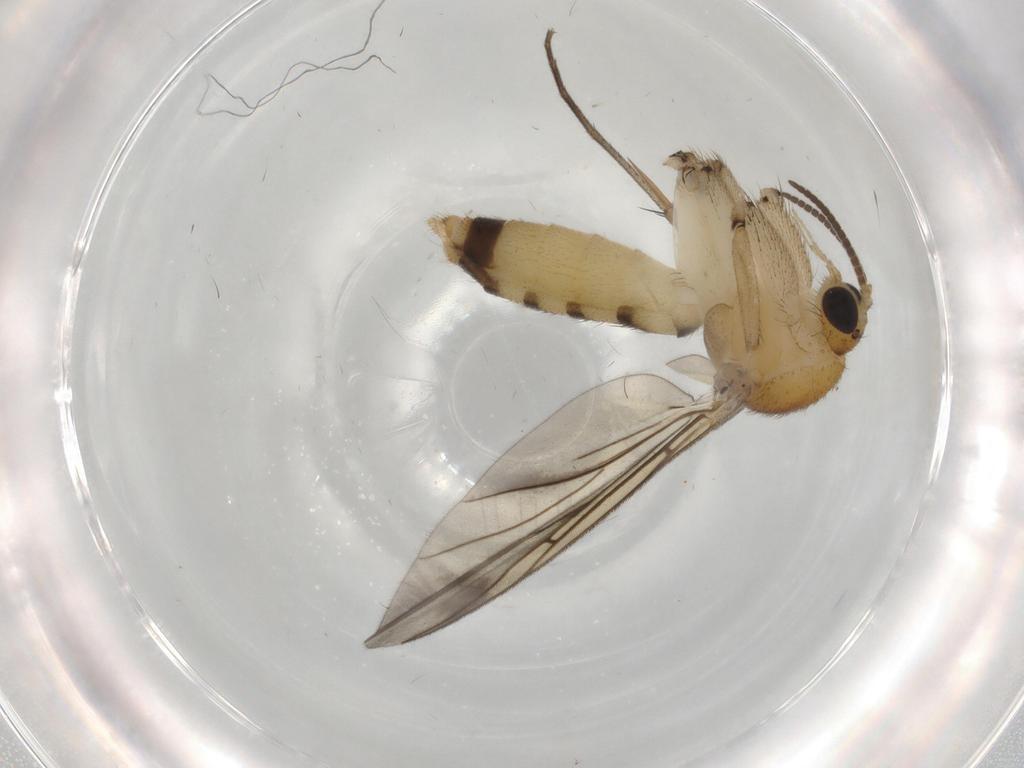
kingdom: Animalia
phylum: Arthropoda
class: Insecta
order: Diptera
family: Mycetophilidae
